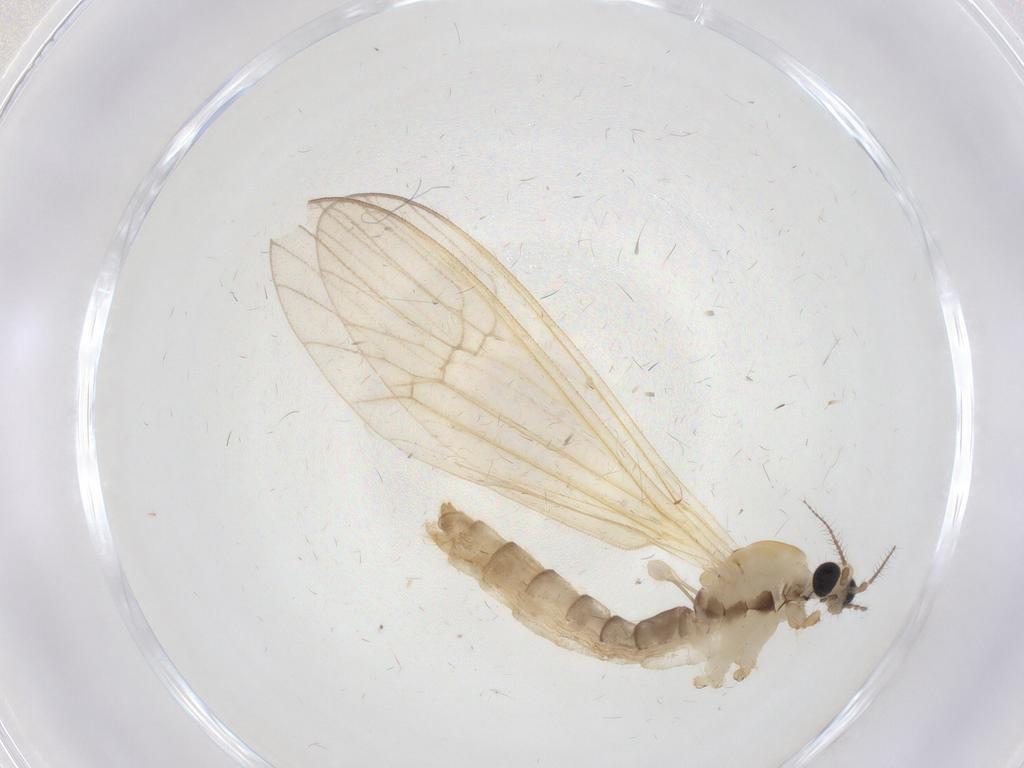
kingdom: Animalia
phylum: Arthropoda
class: Insecta
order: Diptera
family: Limoniidae
